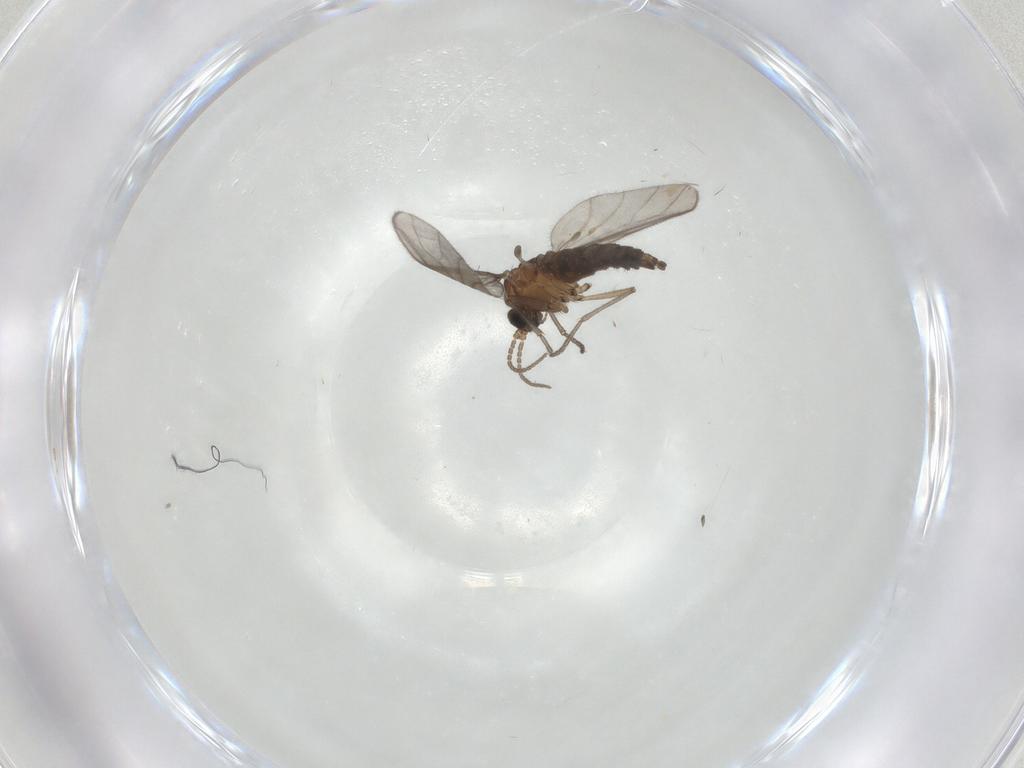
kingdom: Animalia
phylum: Arthropoda
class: Insecta
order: Diptera
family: Sciaridae
